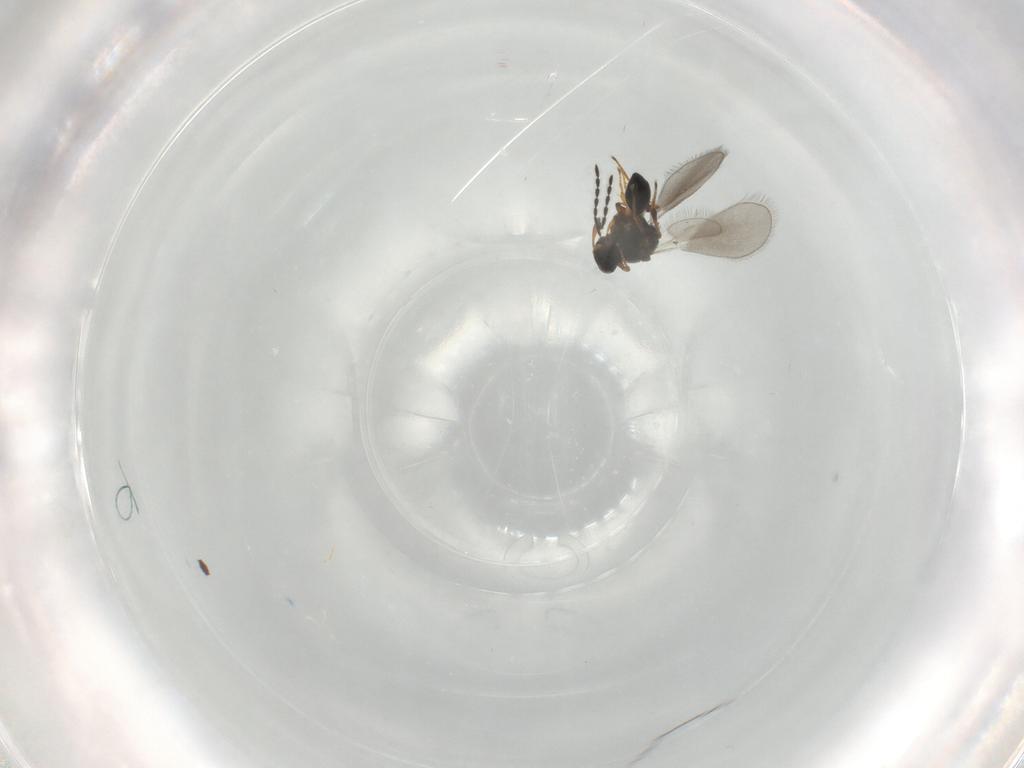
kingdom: Animalia
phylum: Arthropoda
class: Insecta
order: Hymenoptera
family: Platygastridae
